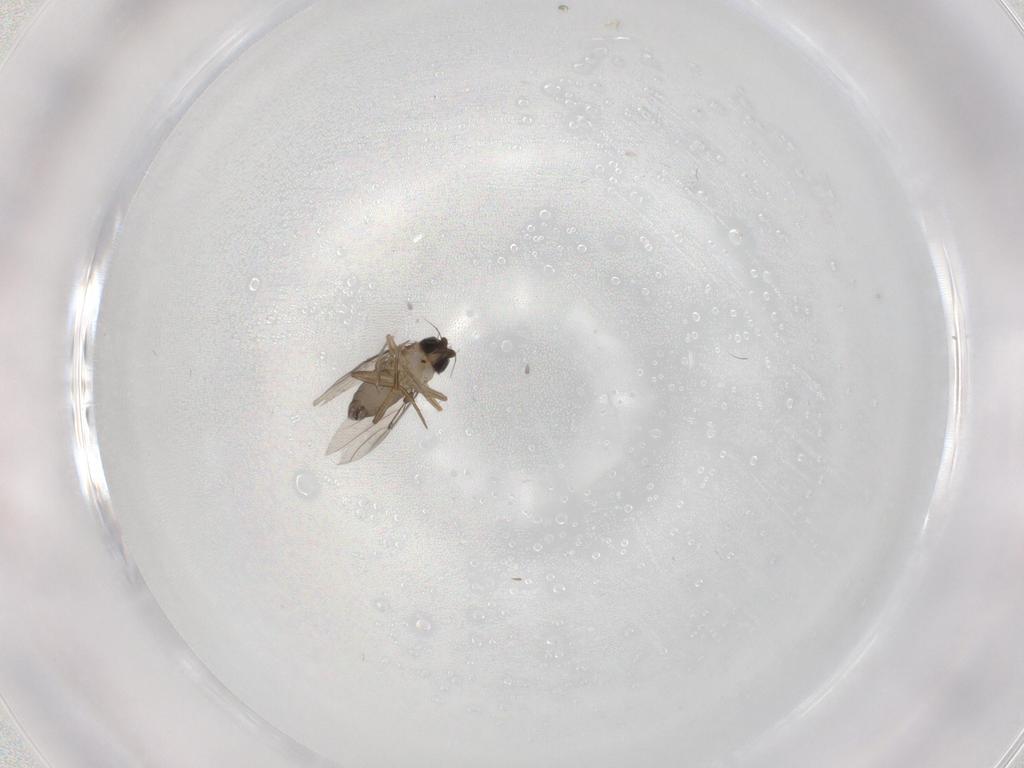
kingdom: Animalia
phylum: Arthropoda
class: Insecta
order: Diptera
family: Phoridae
